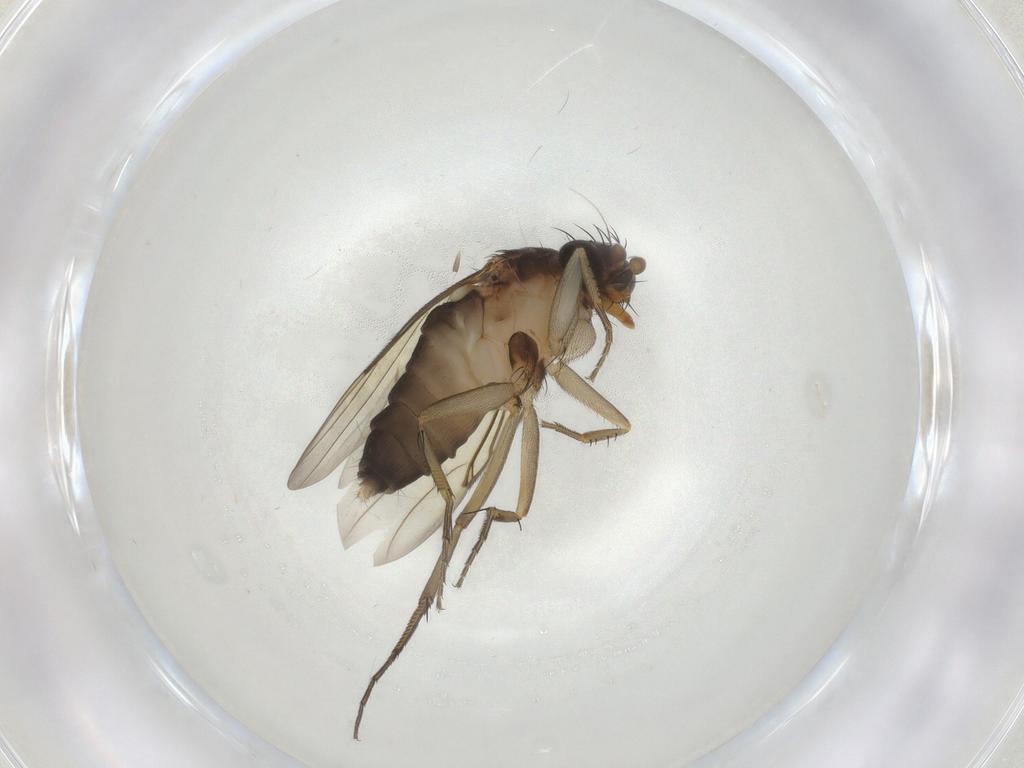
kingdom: Animalia
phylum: Arthropoda
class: Insecta
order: Diptera
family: Phoridae
